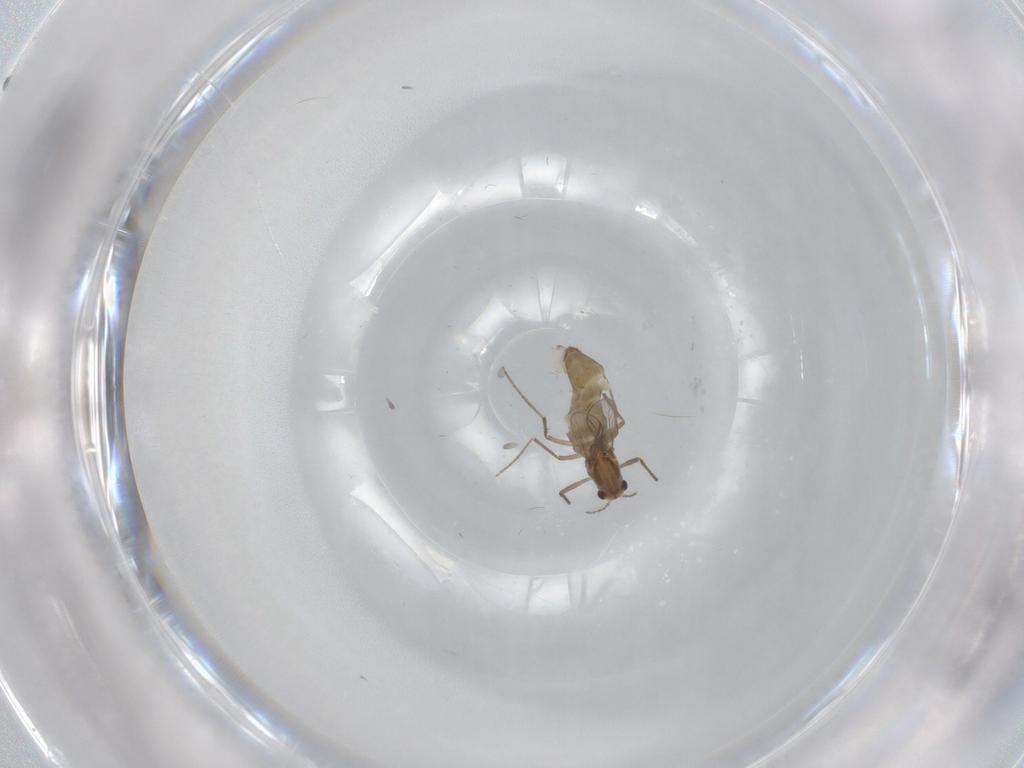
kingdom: Animalia
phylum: Arthropoda
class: Insecta
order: Diptera
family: Chironomidae
